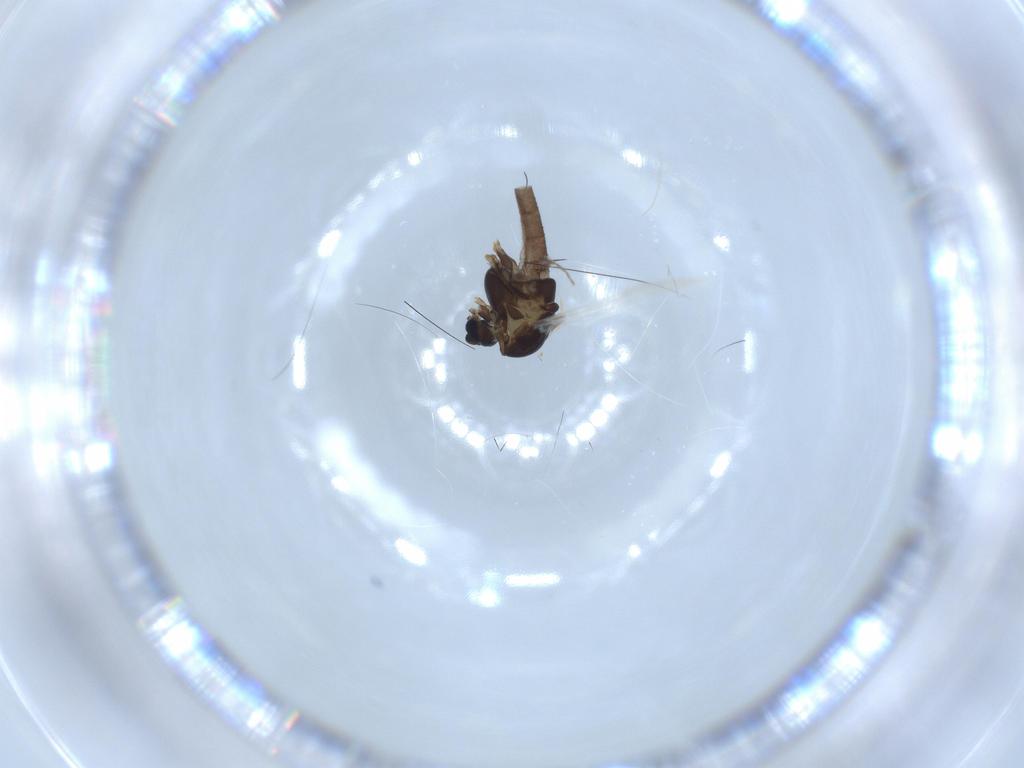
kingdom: Animalia
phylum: Arthropoda
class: Insecta
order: Diptera
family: Chironomidae
